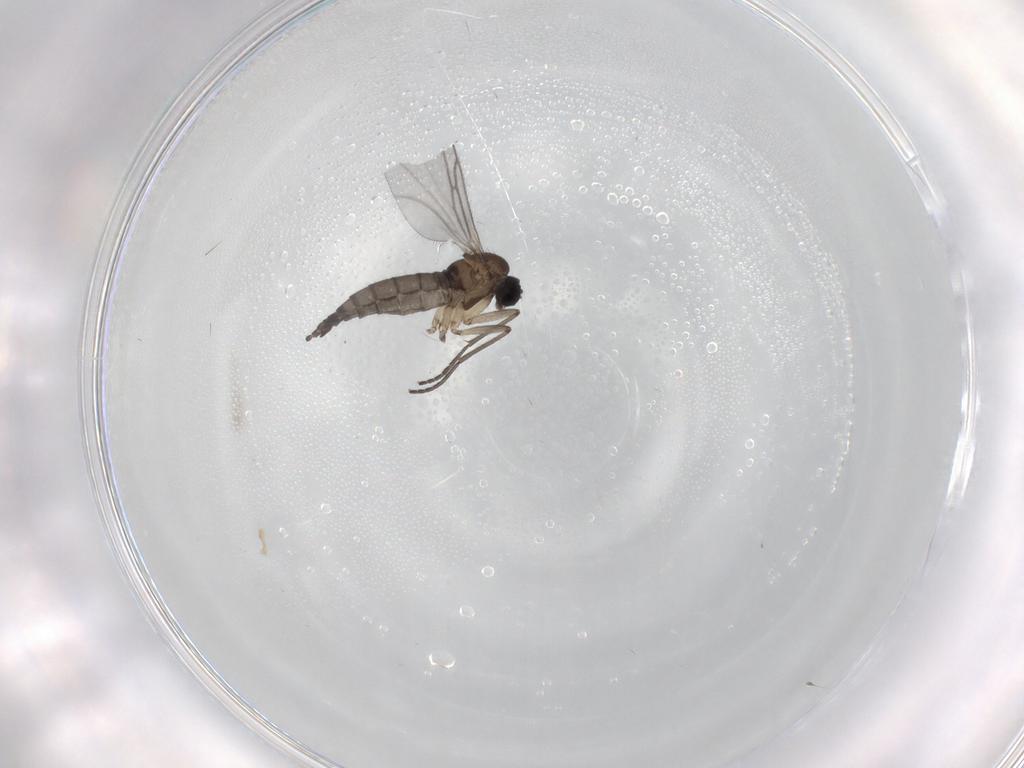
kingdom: Animalia
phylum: Arthropoda
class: Insecta
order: Diptera
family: Sciaridae
